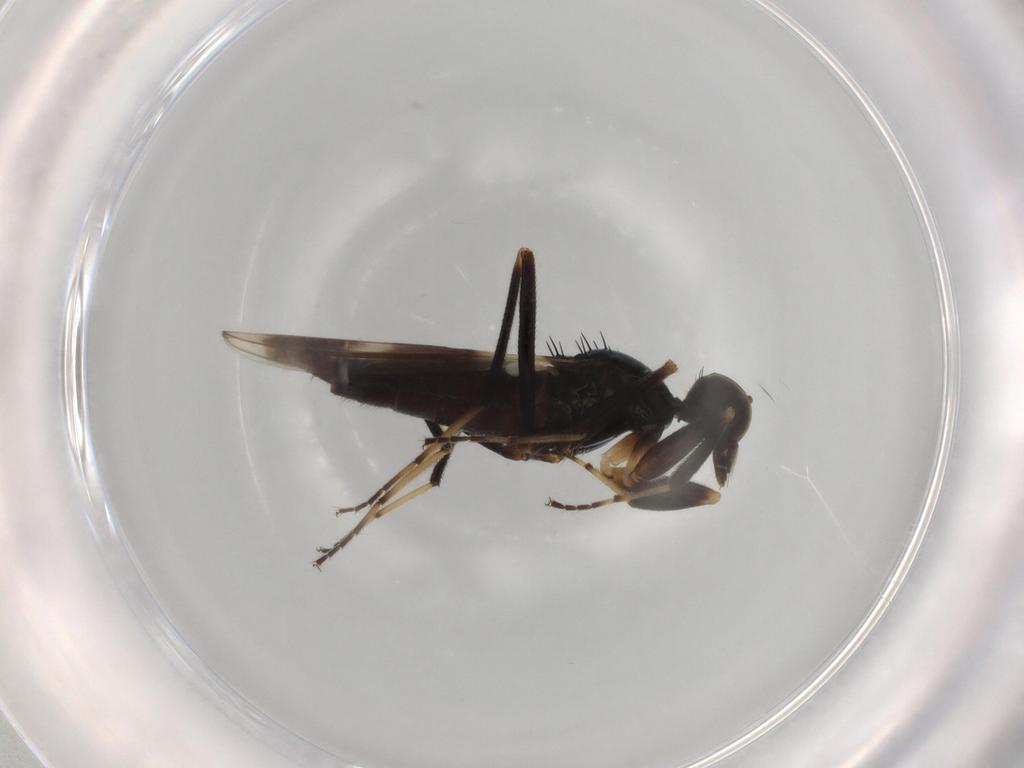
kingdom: Animalia
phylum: Arthropoda
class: Insecta
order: Diptera
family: Hybotidae
